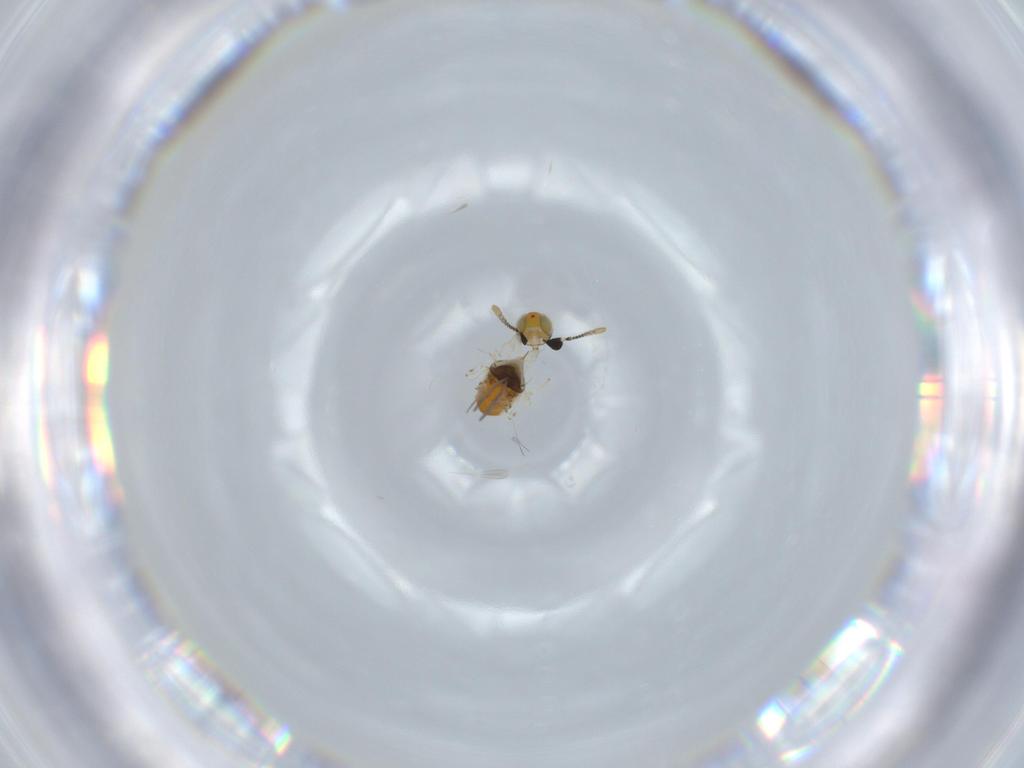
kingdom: Animalia
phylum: Arthropoda
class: Insecta
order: Hymenoptera
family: Encyrtidae
